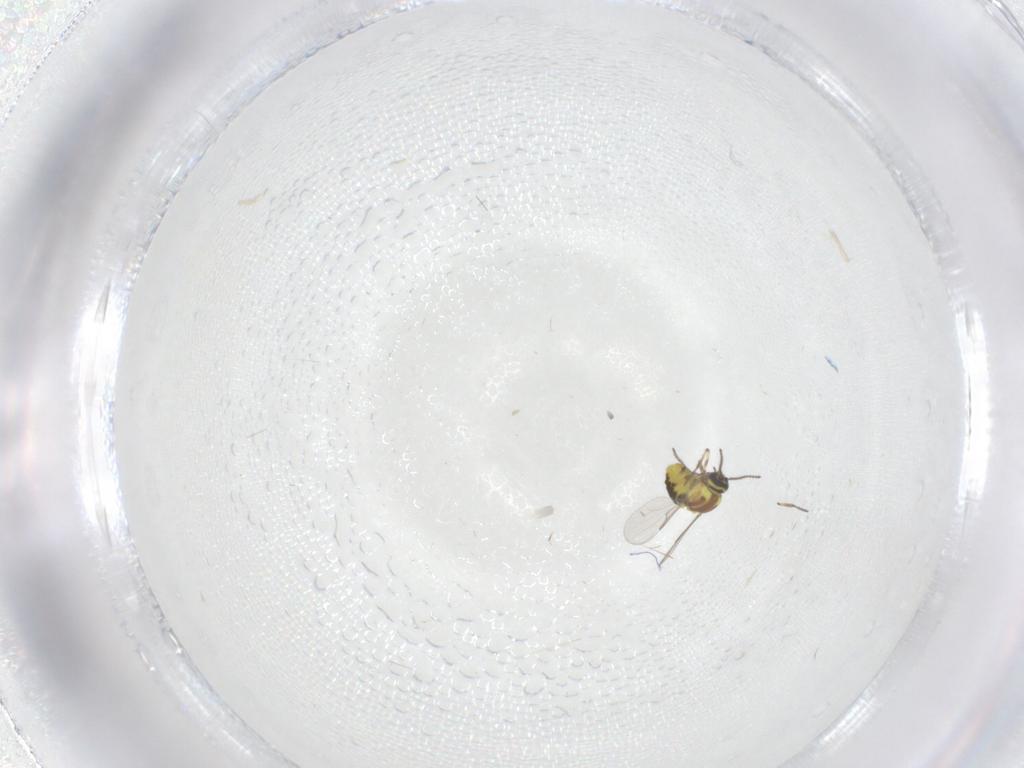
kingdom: Animalia
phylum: Arthropoda
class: Insecta
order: Diptera
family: Ceratopogonidae
